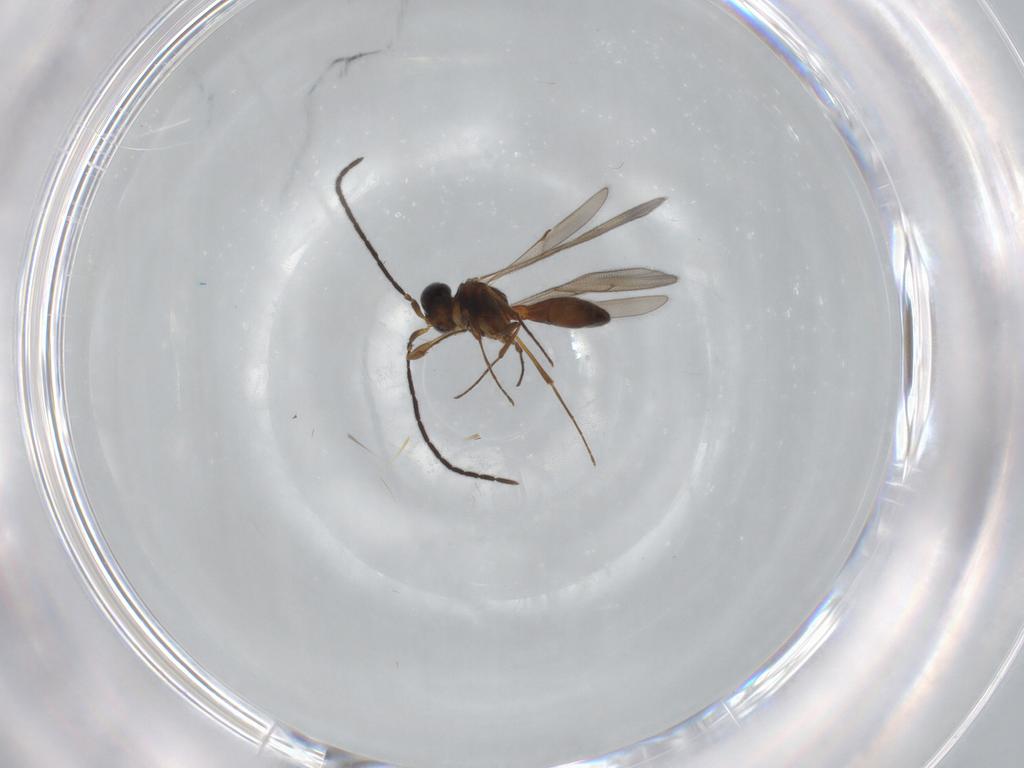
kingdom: Animalia
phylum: Arthropoda
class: Insecta
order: Hymenoptera
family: Scelionidae
